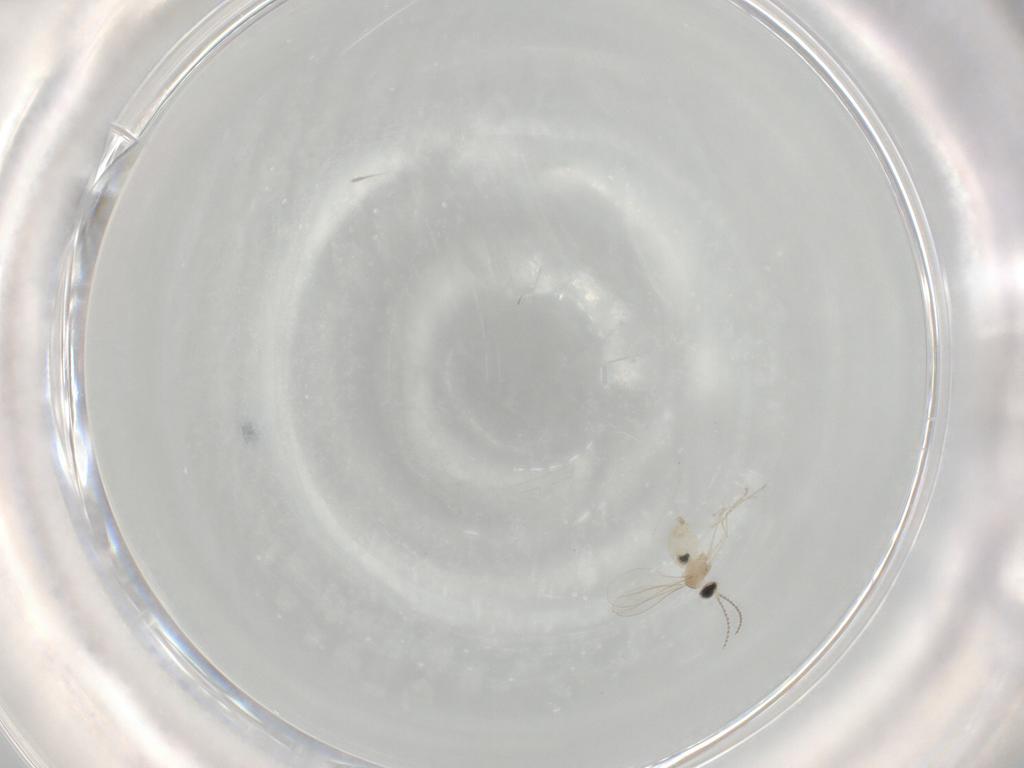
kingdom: Animalia
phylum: Arthropoda
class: Insecta
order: Diptera
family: Cecidomyiidae
